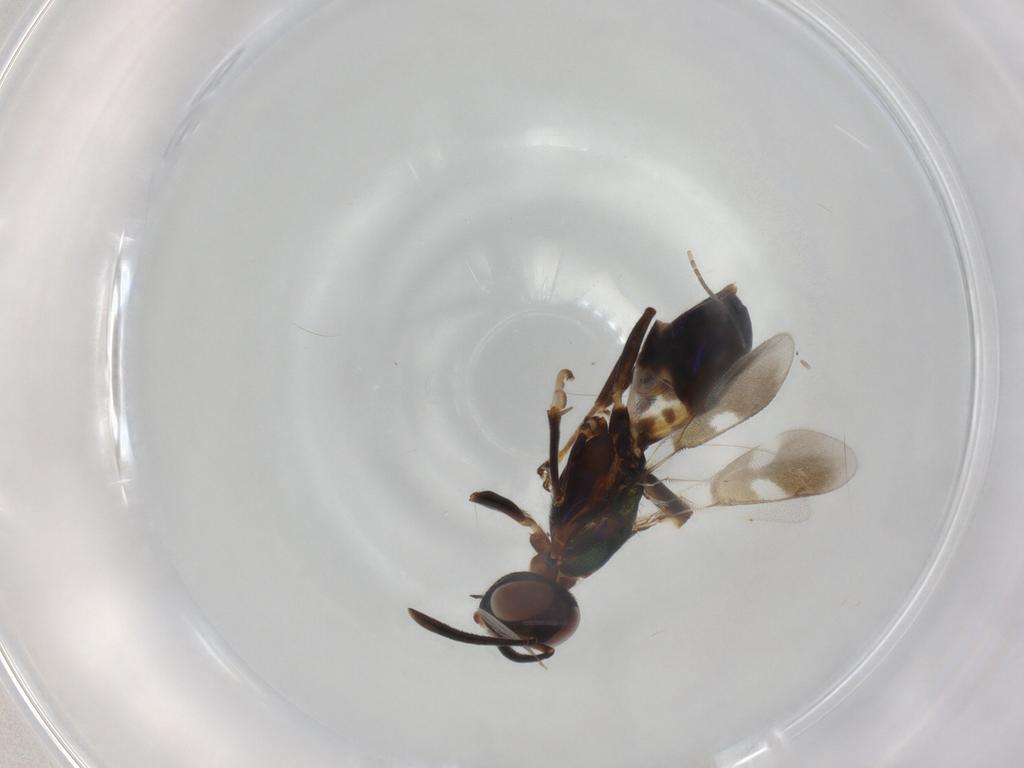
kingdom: Animalia
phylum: Arthropoda
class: Insecta
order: Hymenoptera
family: Eupelmidae
